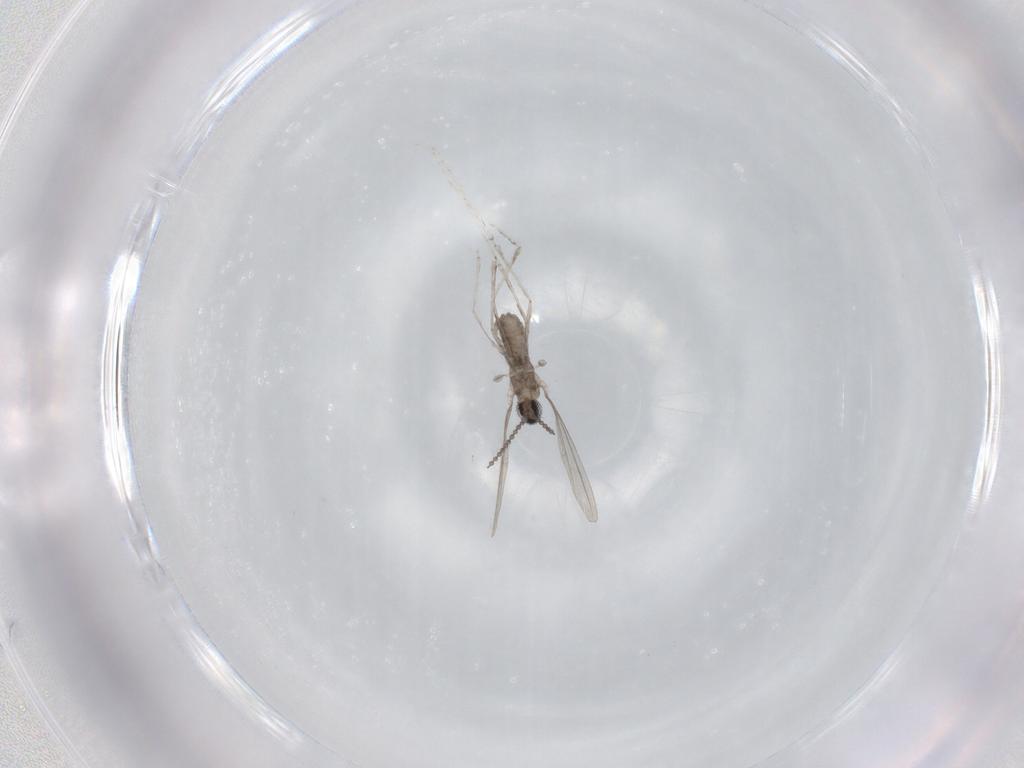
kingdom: Animalia
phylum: Arthropoda
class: Insecta
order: Diptera
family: Cecidomyiidae
